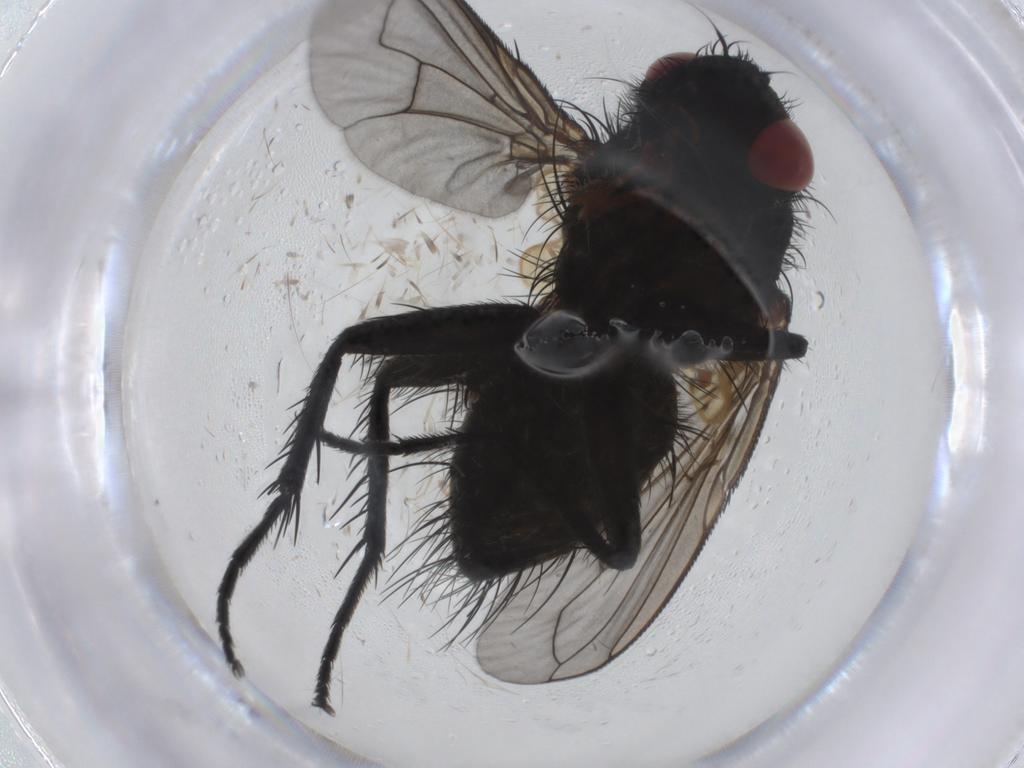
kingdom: Animalia
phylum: Arthropoda
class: Insecta
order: Diptera
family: Tachinidae
